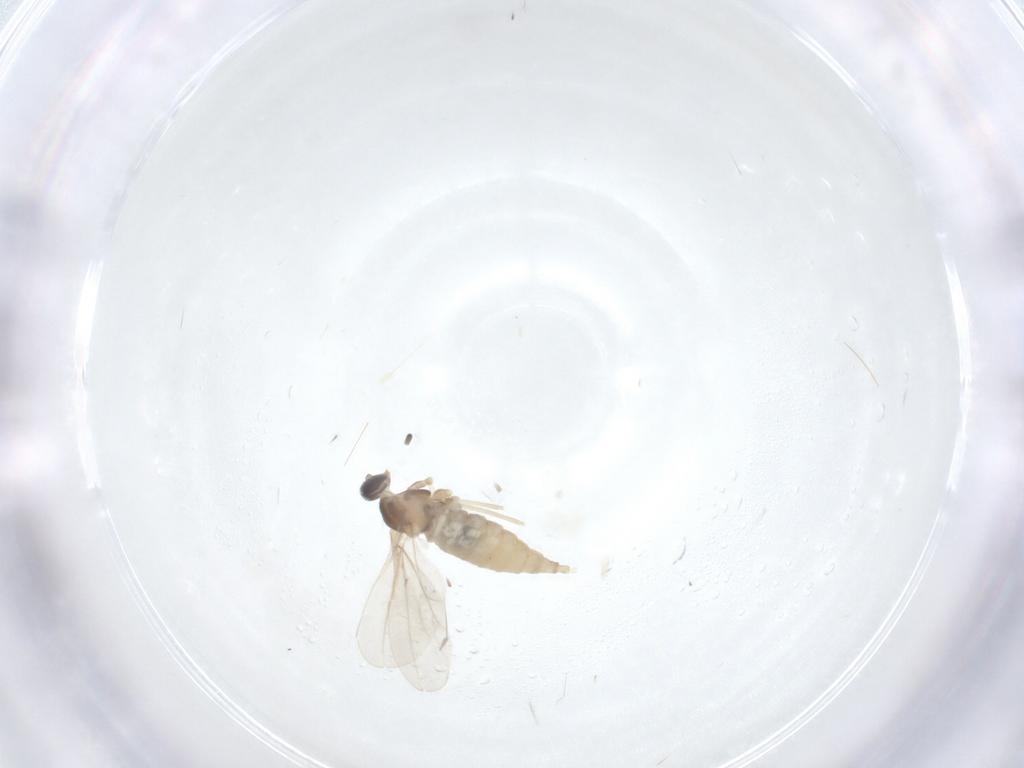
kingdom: Animalia
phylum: Arthropoda
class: Insecta
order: Diptera
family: Cecidomyiidae
